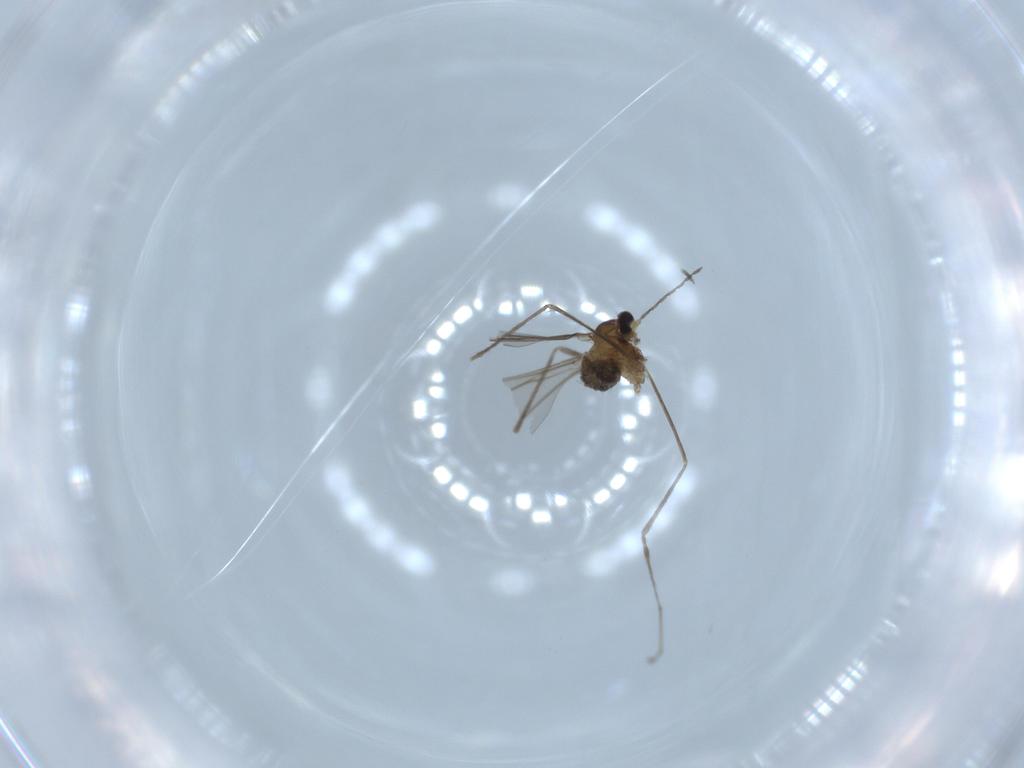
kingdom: Animalia
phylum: Arthropoda
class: Insecta
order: Diptera
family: Cecidomyiidae
